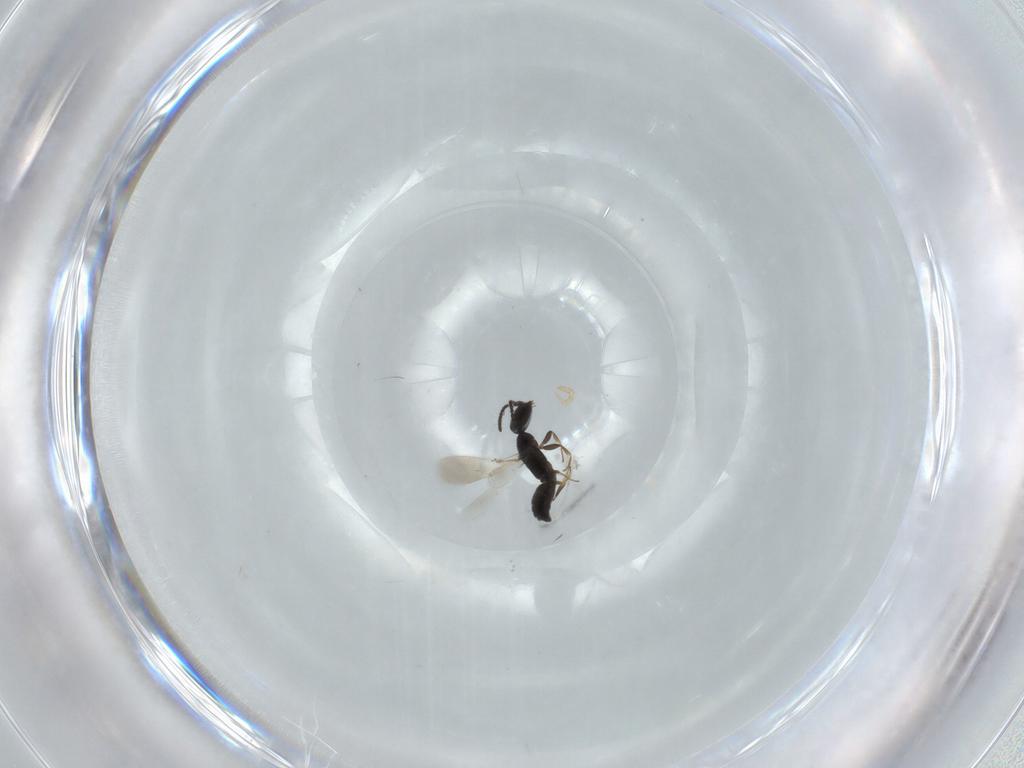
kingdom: Animalia
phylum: Arthropoda
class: Insecta
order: Hymenoptera
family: Bethylidae
